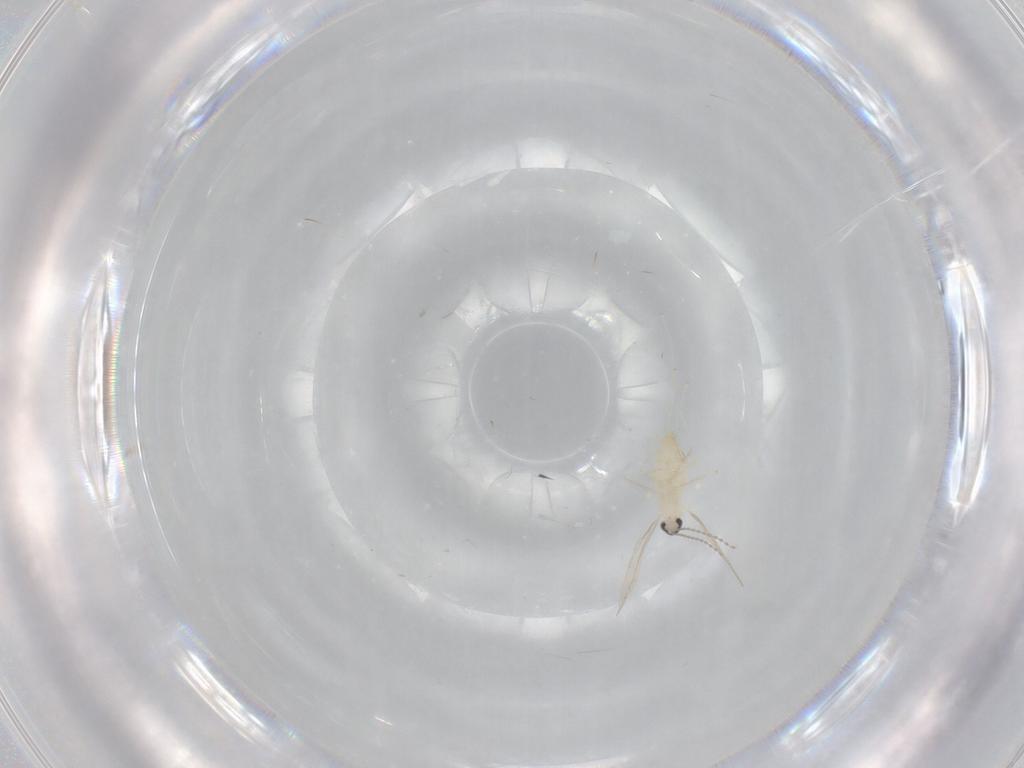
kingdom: Animalia
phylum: Arthropoda
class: Insecta
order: Diptera
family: Cecidomyiidae
